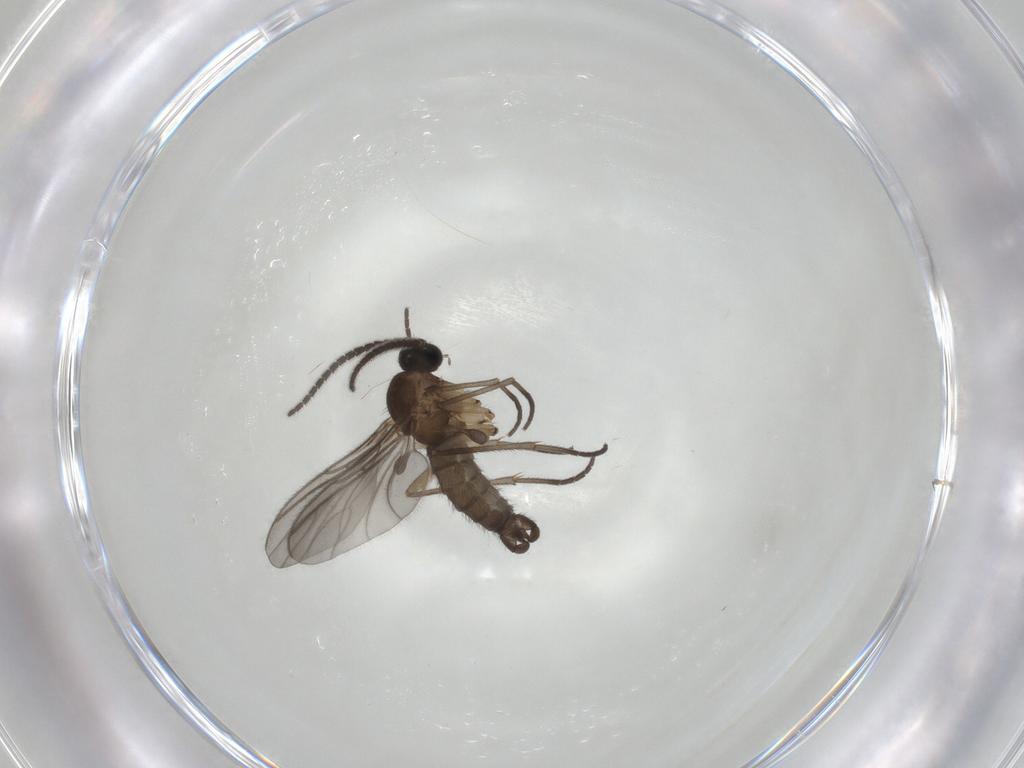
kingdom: Animalia
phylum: Arthropoda
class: Insecta
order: Diptera
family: Sciaridae
